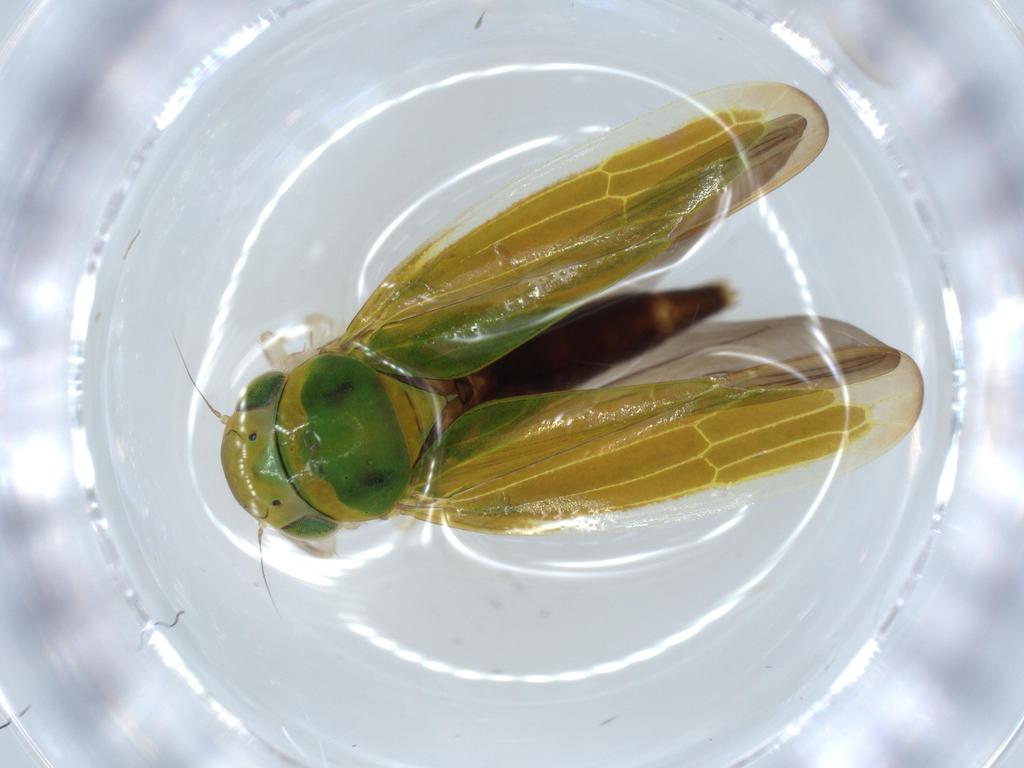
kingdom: Animalia
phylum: Arthropoda
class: Insecta
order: Hemiptera
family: Cicadellidae
